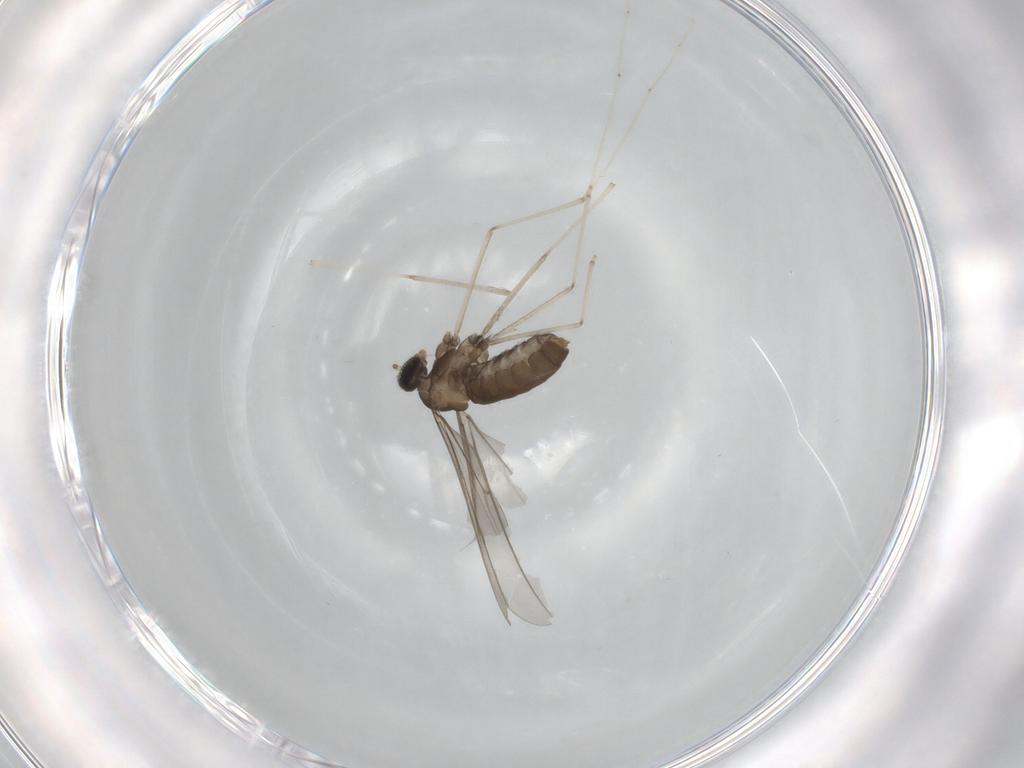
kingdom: Animalia
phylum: Arthropoda
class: Insecta
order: Diptera
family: Cecidomyiidae
